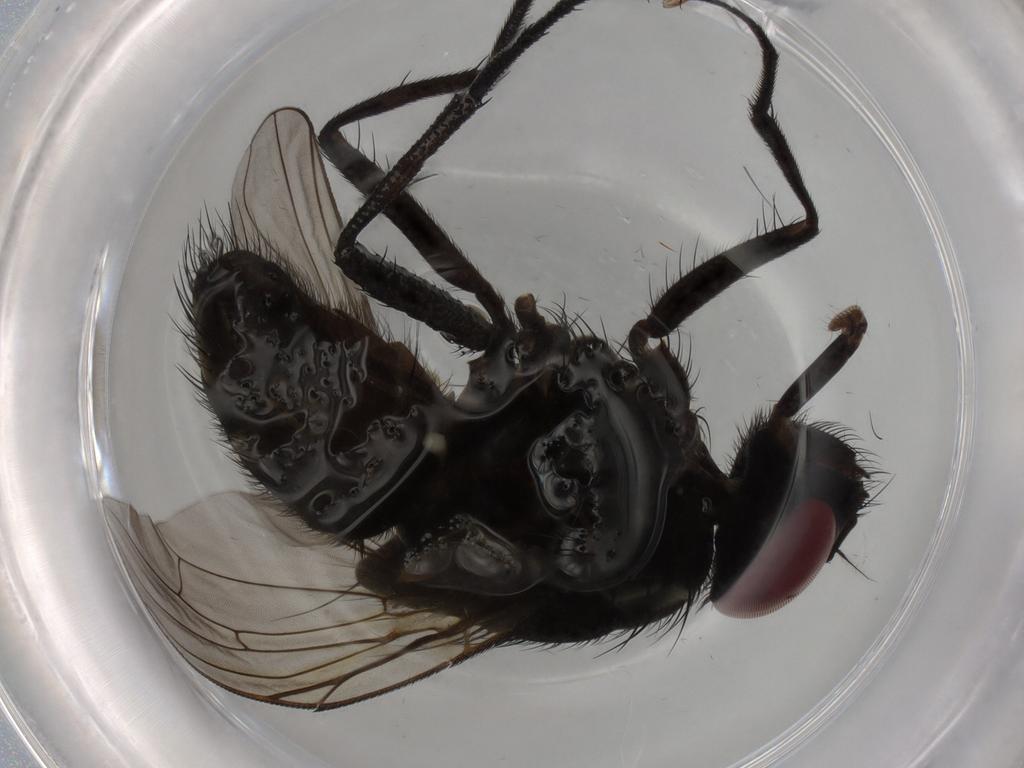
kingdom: Animalia
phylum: Arthropoda
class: Insecta
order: Diptera
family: Muscidae
